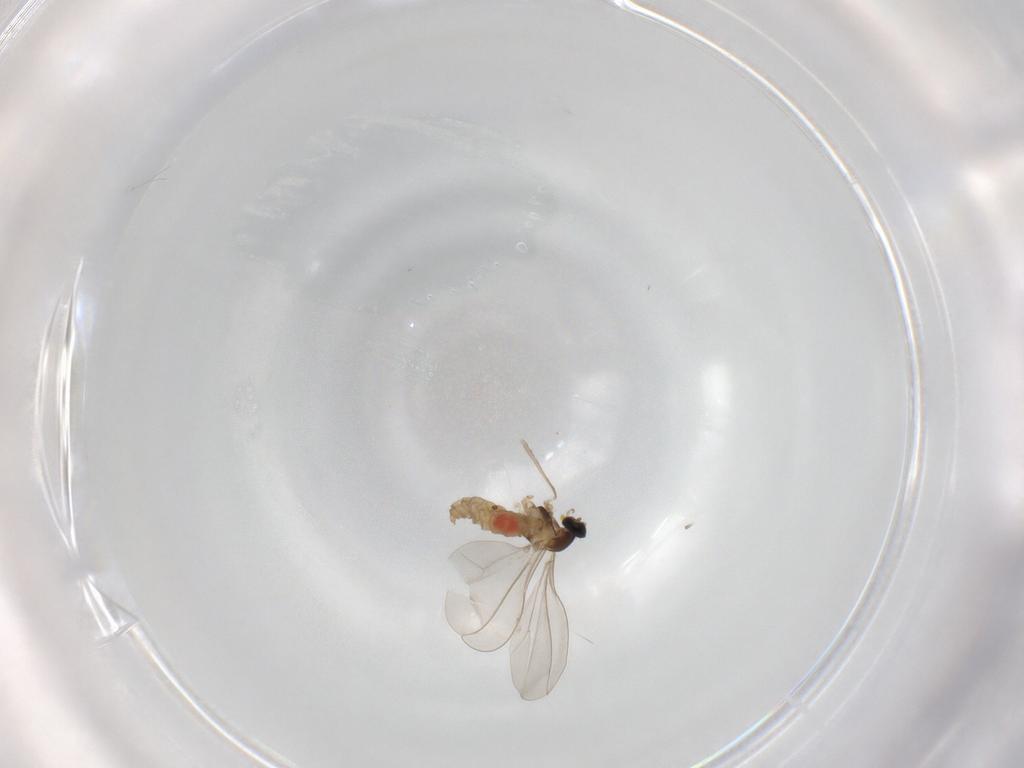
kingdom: Animalia
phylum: Arthropoda
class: Insecta
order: Diptera
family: Cecidomyiidae
